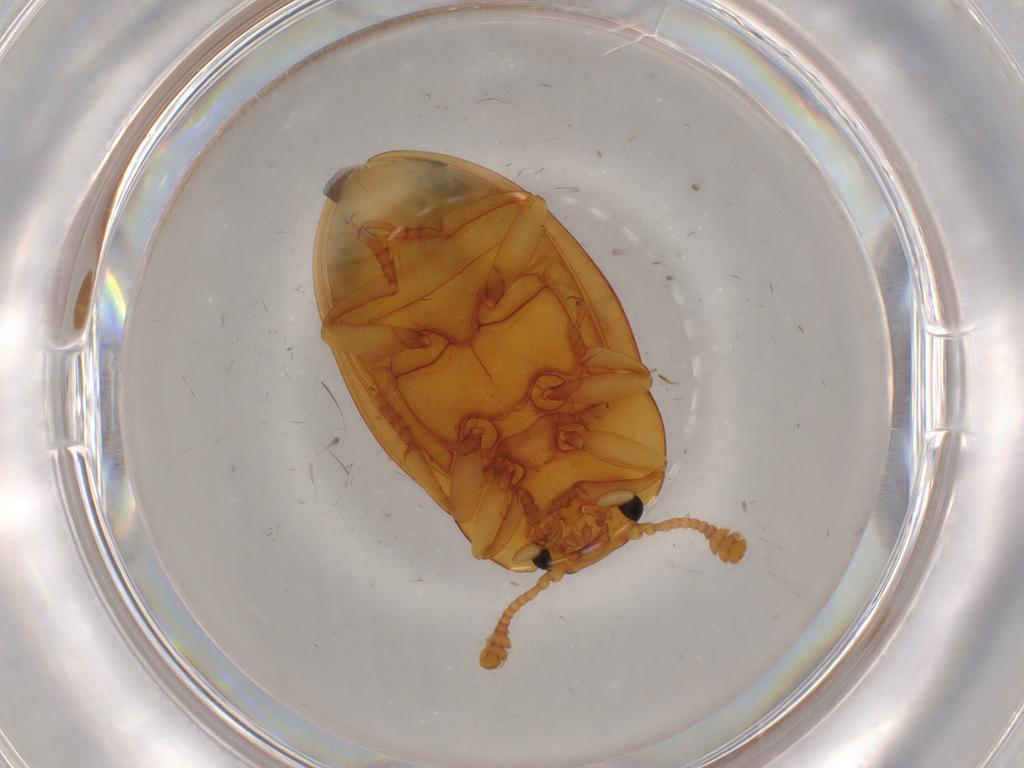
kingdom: Animalia
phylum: Arthropoda
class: Insecta
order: Coleoptera
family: Erotylidae
